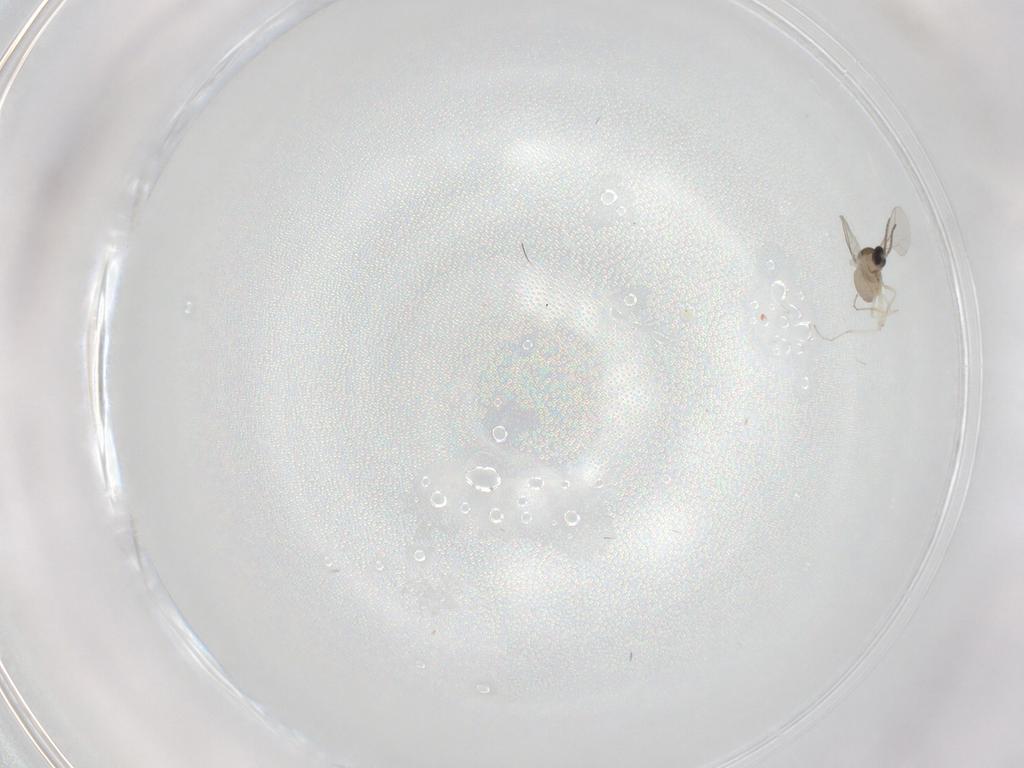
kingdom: Animalia
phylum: Arthropoda
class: Insecta
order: Diptera
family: Cecidomyiidae
